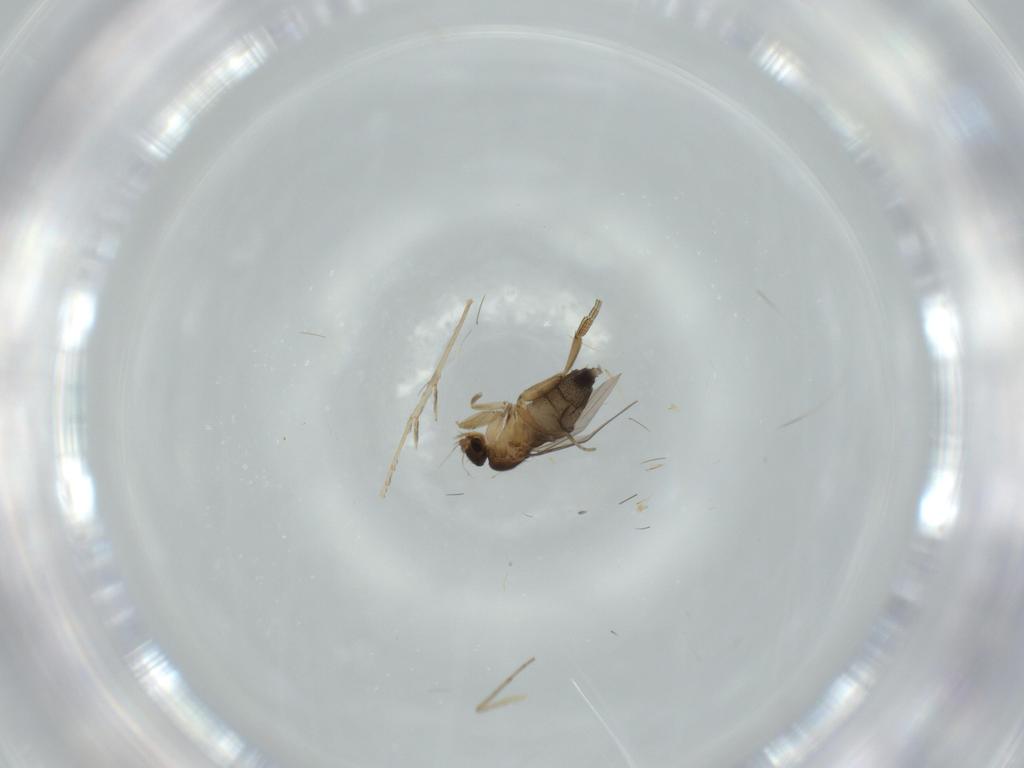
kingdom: Animalia
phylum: Arthropoda
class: Insecta
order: Diptera
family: Phoridae
